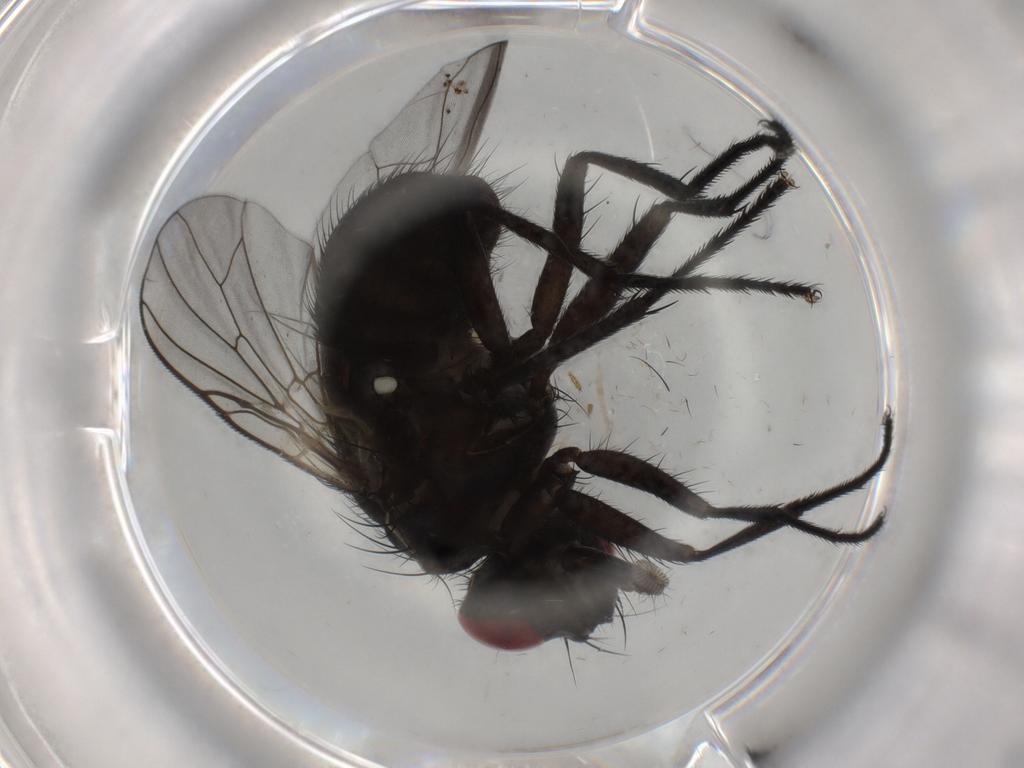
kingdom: Animalia
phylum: Arthropoda
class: Insecta
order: Diptera
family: Muscidae
